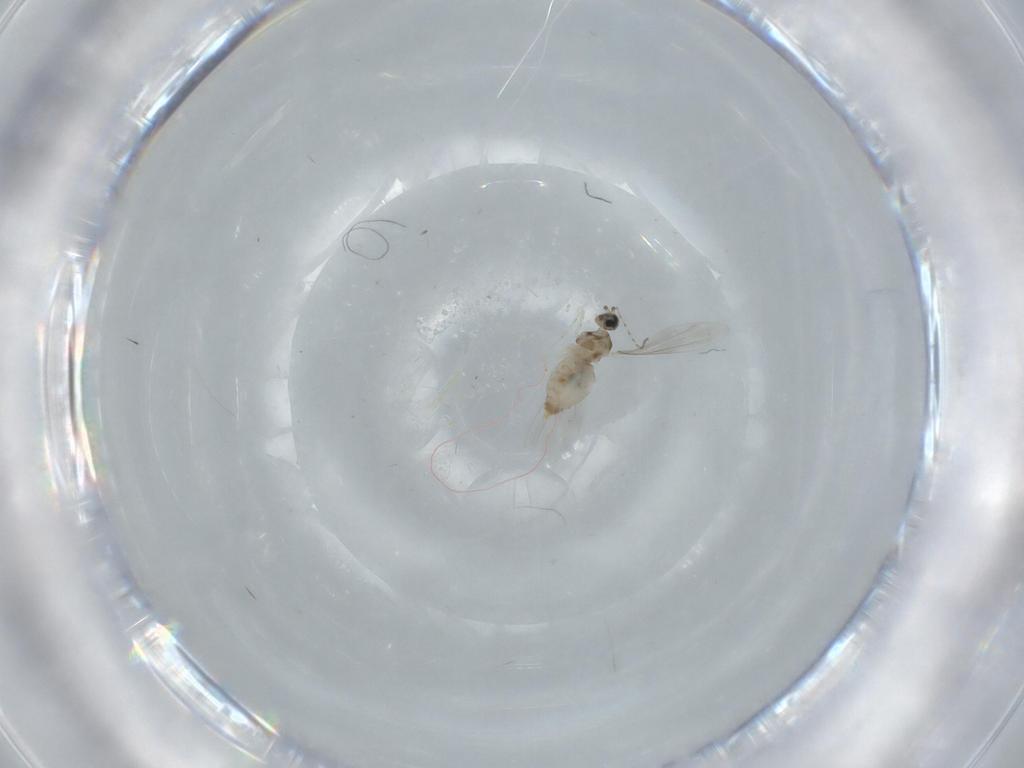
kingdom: Animalia
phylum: Arthropoda
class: Insecta
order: Diptera
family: Cecidomyiidae
